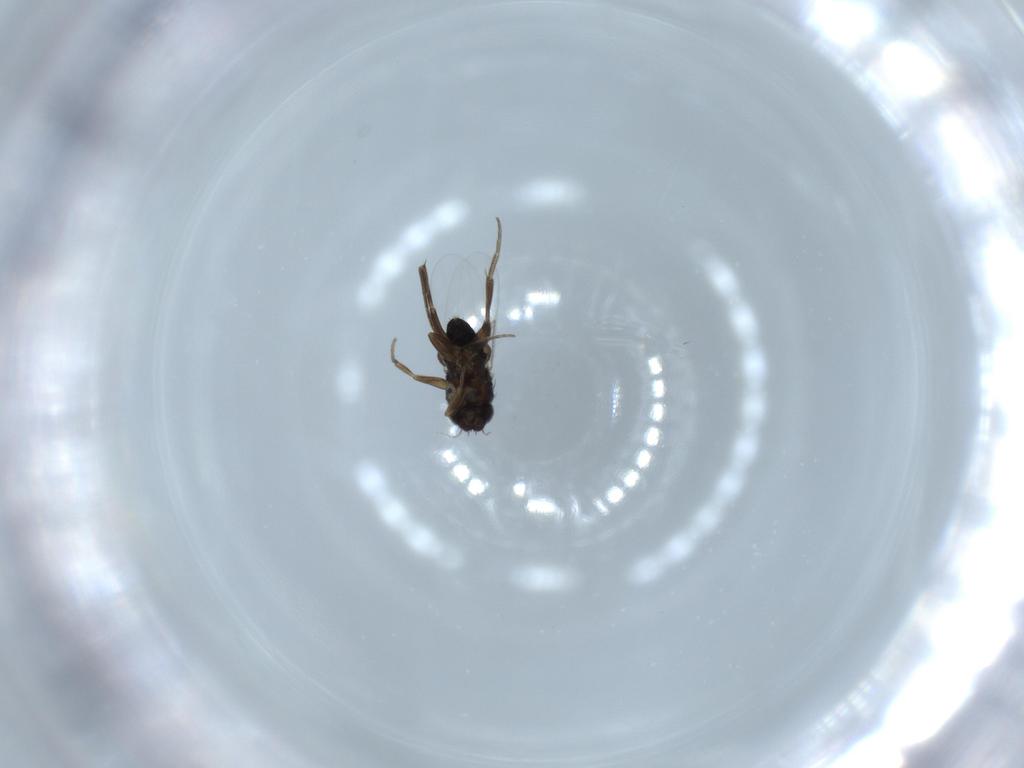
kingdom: Animalia
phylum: Arthropoda
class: Insecta
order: Diptera
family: Phoridae
